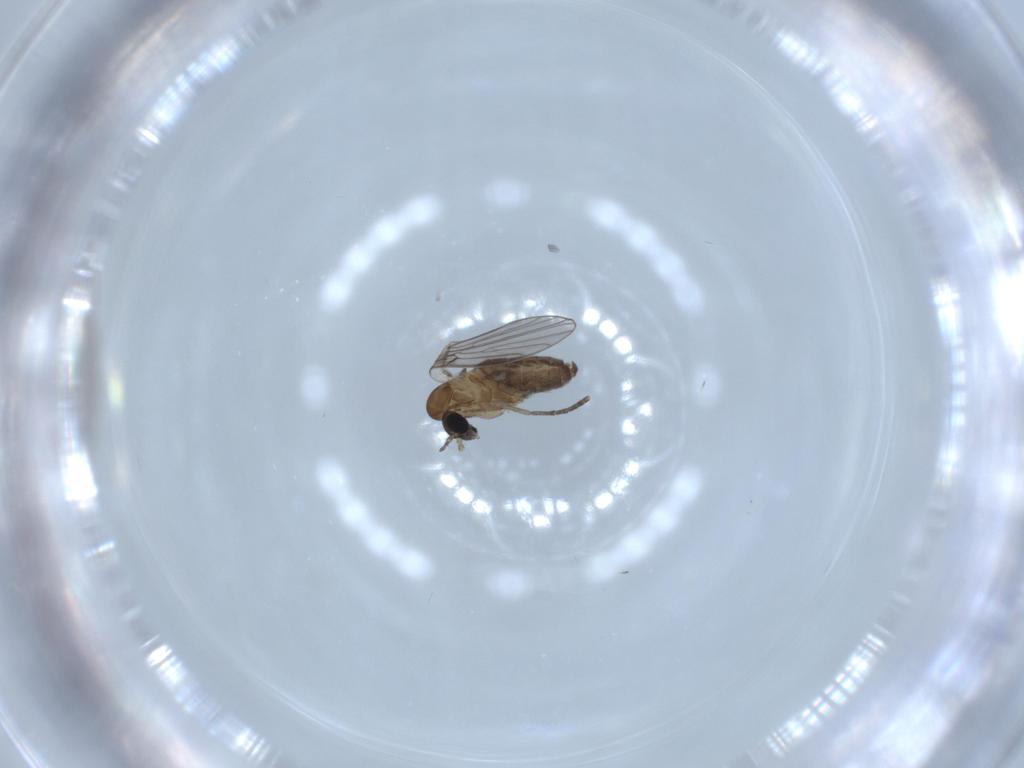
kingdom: Animalia
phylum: Arthropoda
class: Insecta
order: Diptera
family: Psychodidae
